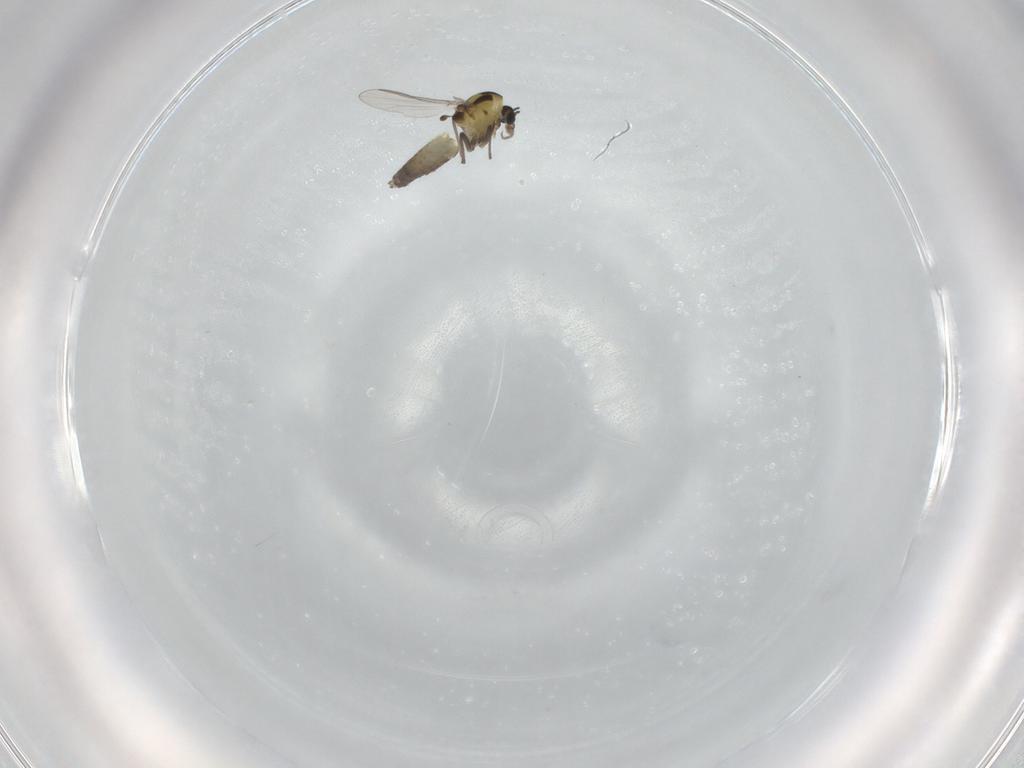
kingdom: Animalia
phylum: Arthropoda
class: Insecta
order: Diptera
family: Chironomidae
